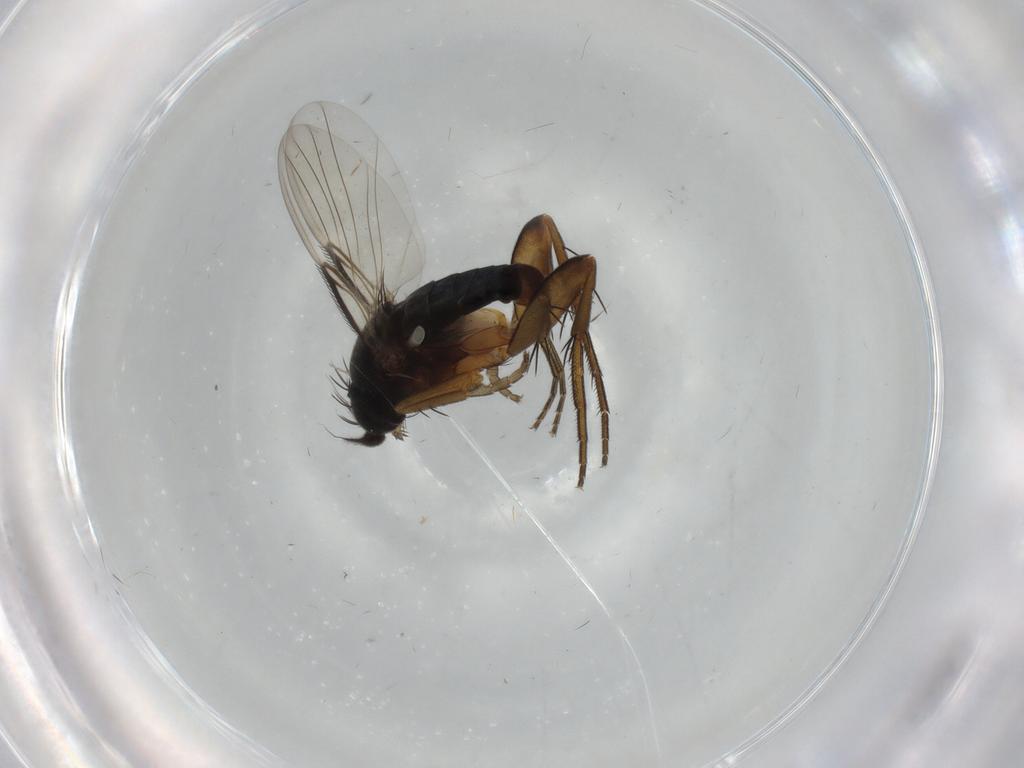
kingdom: Animalia
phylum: Arthropoda
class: Insecta
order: Diptera
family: Phoridae
